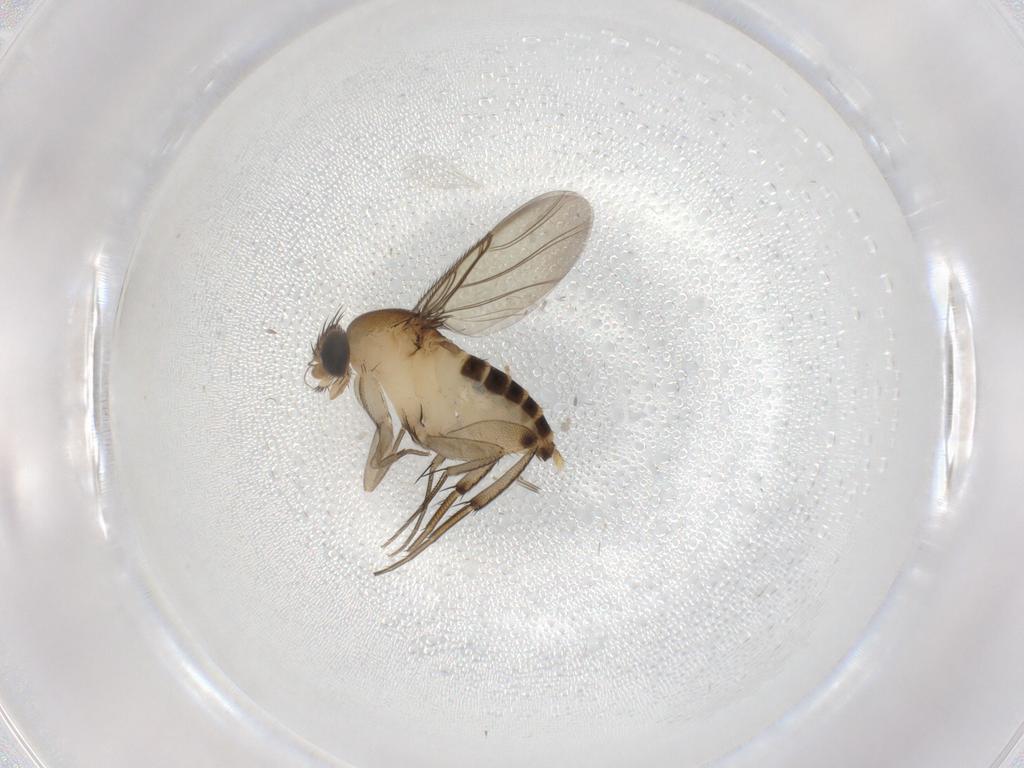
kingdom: Animalia
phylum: Arthropoda
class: Insecta
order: Diptera
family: Phoridae
